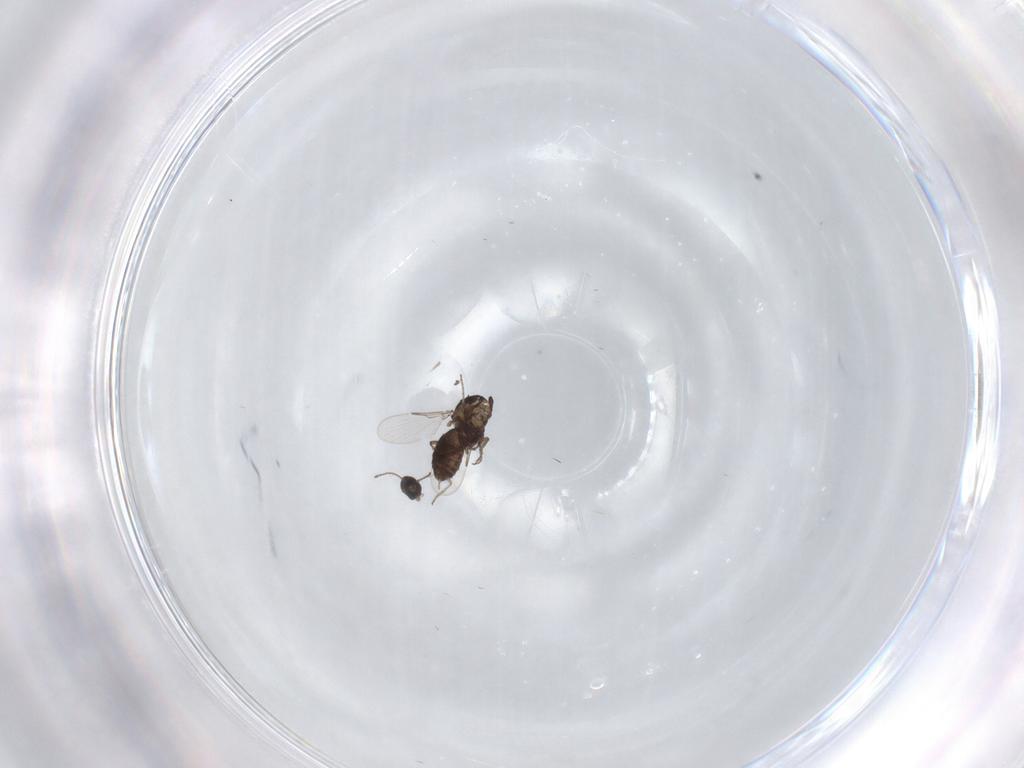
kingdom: Animalia
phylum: Arthropoda
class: Insecta
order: Diptera
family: Ceratopogonidae
